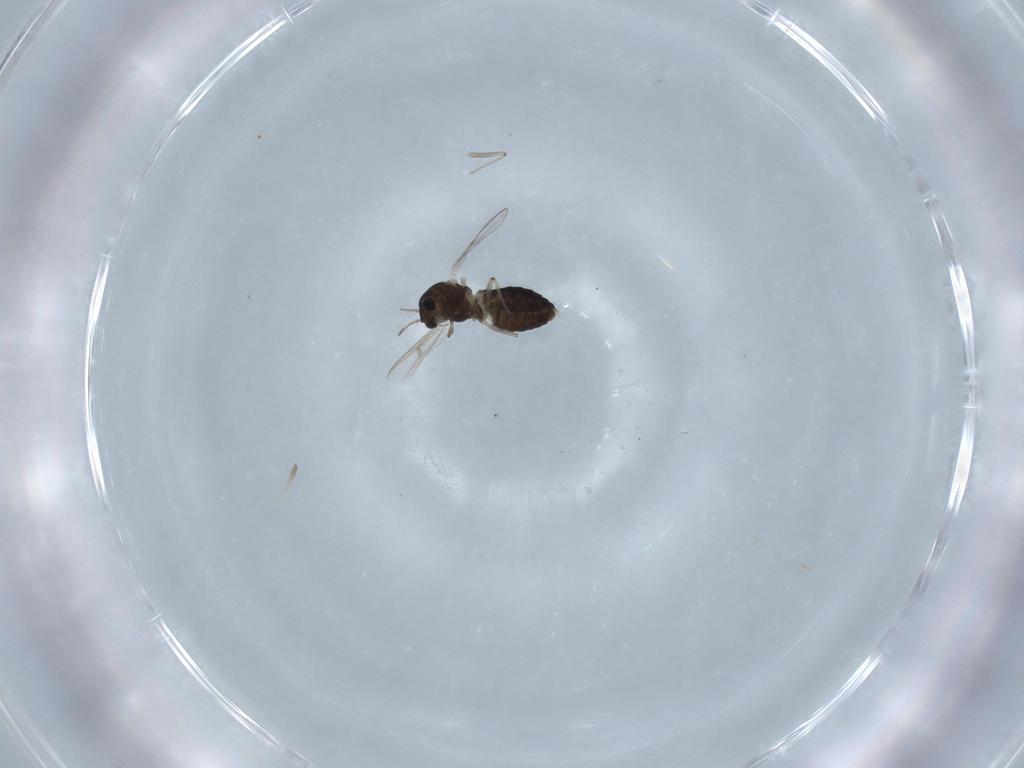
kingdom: Animalia
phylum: Arthropoda
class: Insecta
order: Diptera
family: Chironomidae
